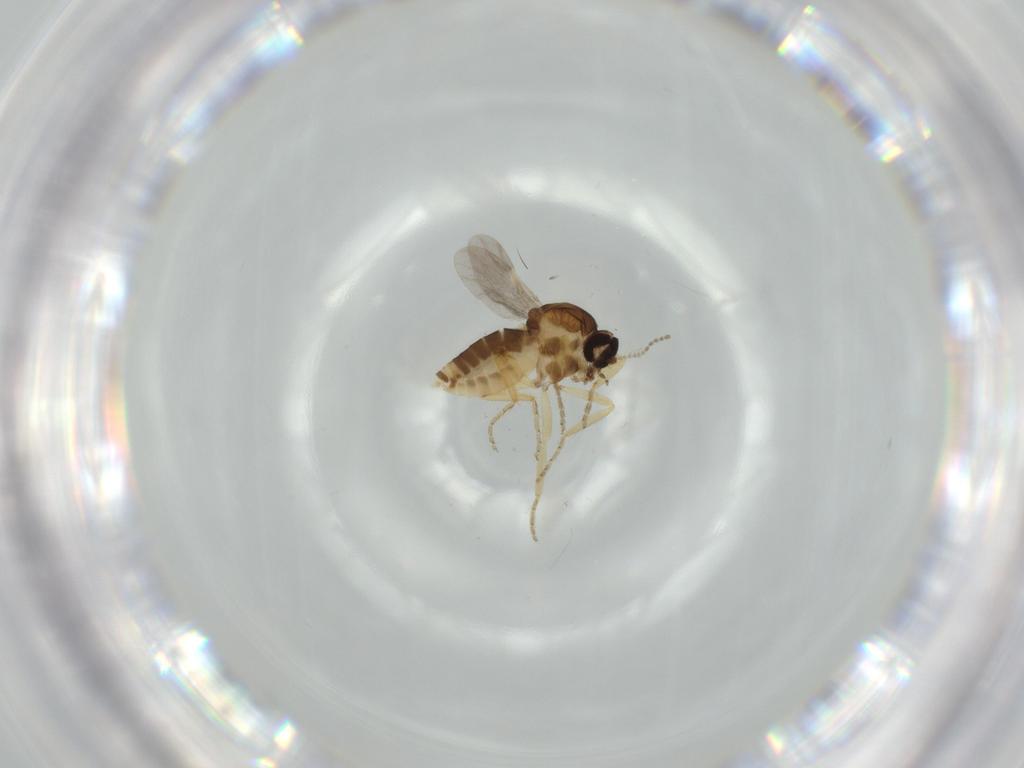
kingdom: Animalia
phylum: Arthropoda
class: Insecta
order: Diptera
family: Ceratopogonidae
